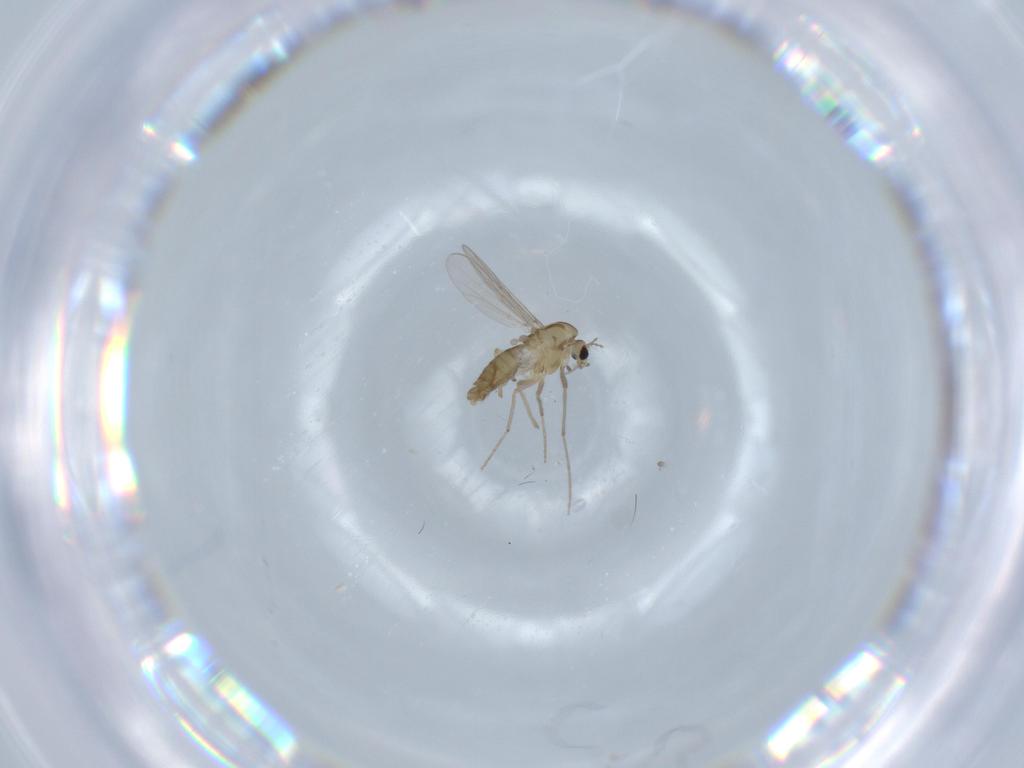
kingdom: Animalia
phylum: Arthropoda
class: Insecta
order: Diptera
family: Chironomidae
